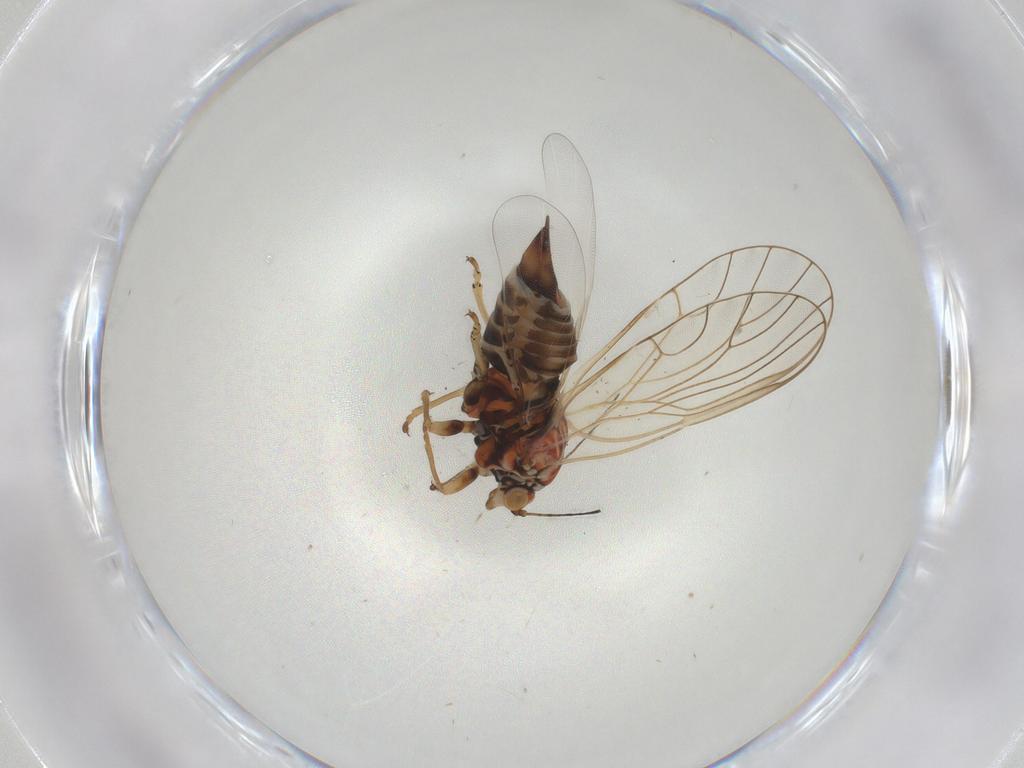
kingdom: Animalia
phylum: Arthropoda
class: Insecta
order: Hemiptera
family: Psyllidae
